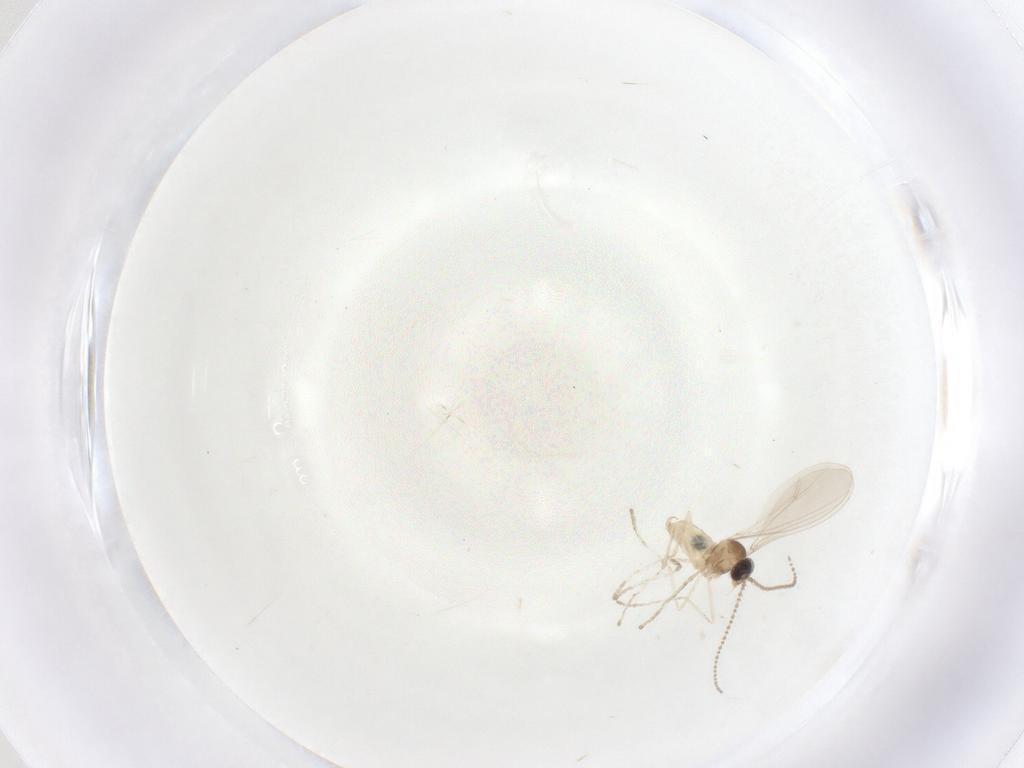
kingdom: Animalia
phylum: Arthropoda
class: Insecta
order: Diptera
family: Cecidomyiidae
